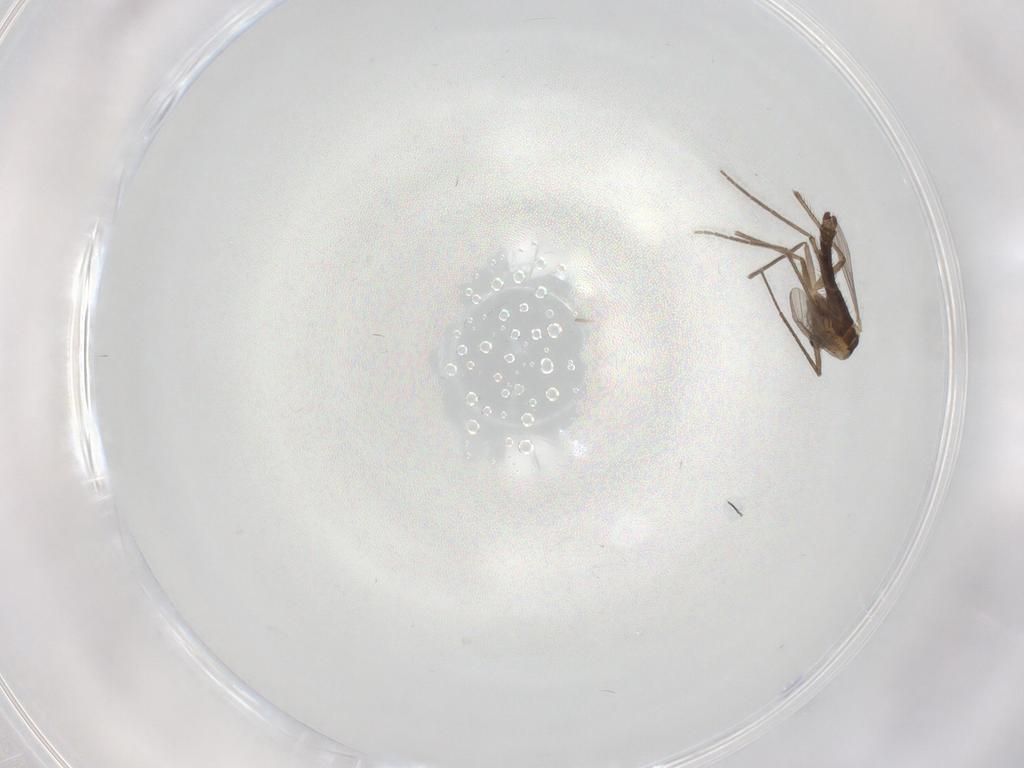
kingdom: Animalia
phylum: Arthropoda
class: Insecta
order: Diptera
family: Chironomidae
